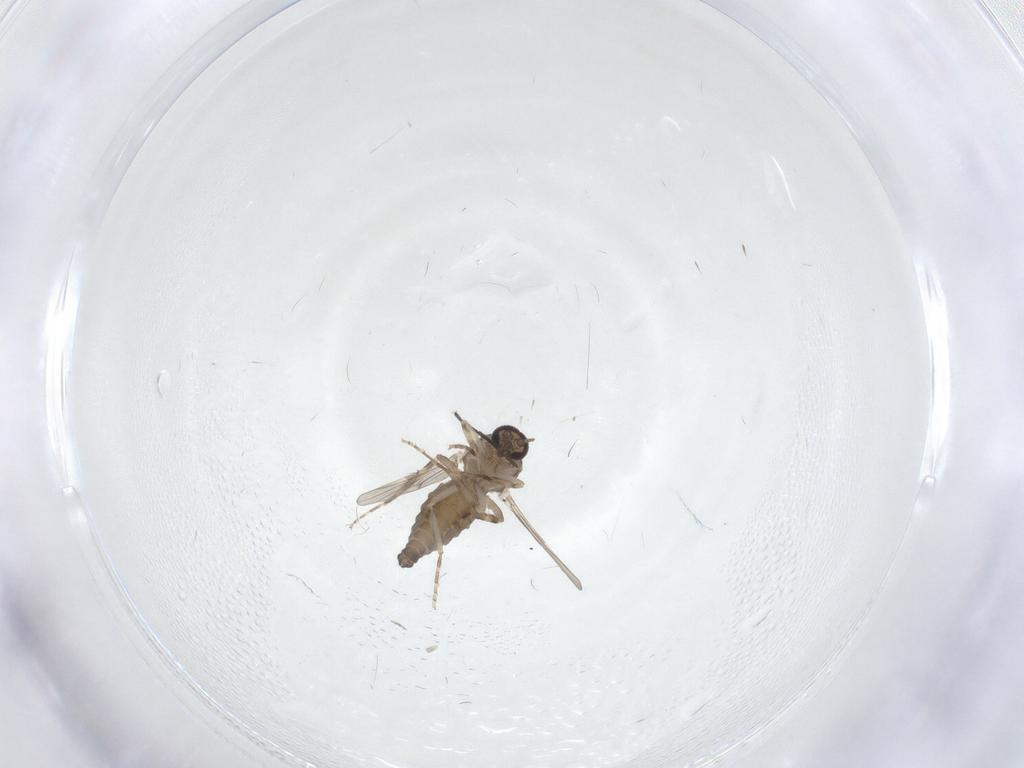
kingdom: Animalia
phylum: Arthropoda
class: Insecta
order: Diptera
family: Ceratopogonidae
